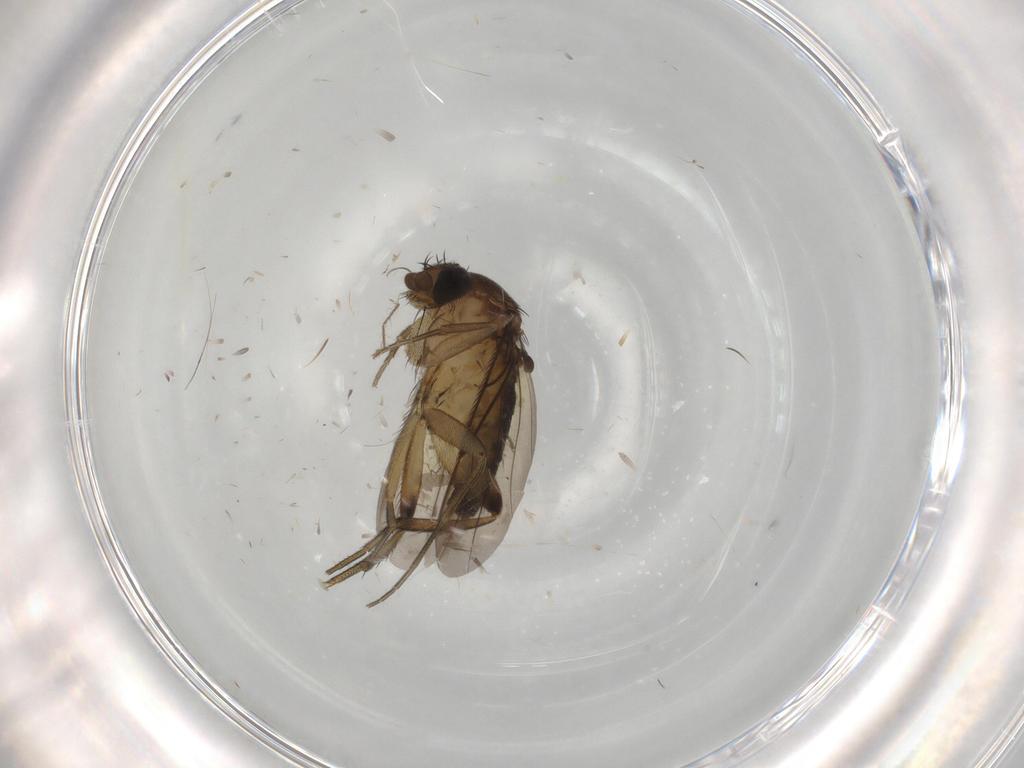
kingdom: Animalia
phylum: Arthropoda
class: Insecta
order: Diptera
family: Phoridae
